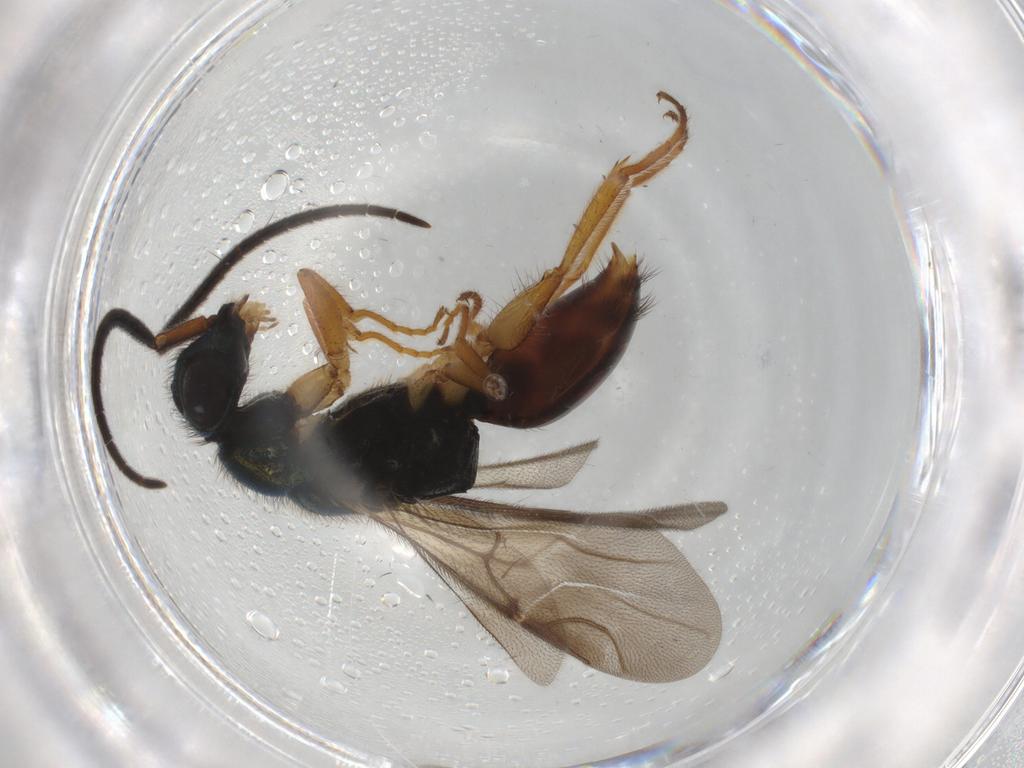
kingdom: Animalia
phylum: Arthropoda
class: Insecta
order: Hymenoptera
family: Chrysididae
